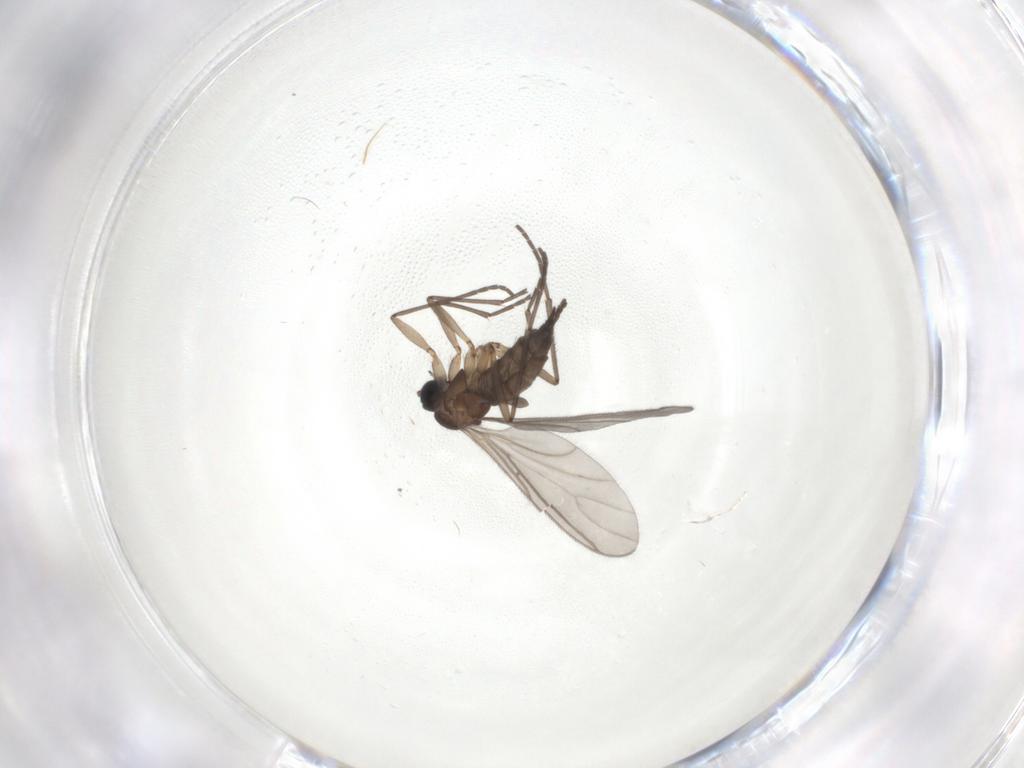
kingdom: Animalia
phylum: Arthropoda
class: Insecta
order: Diptera
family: Sciaridae
